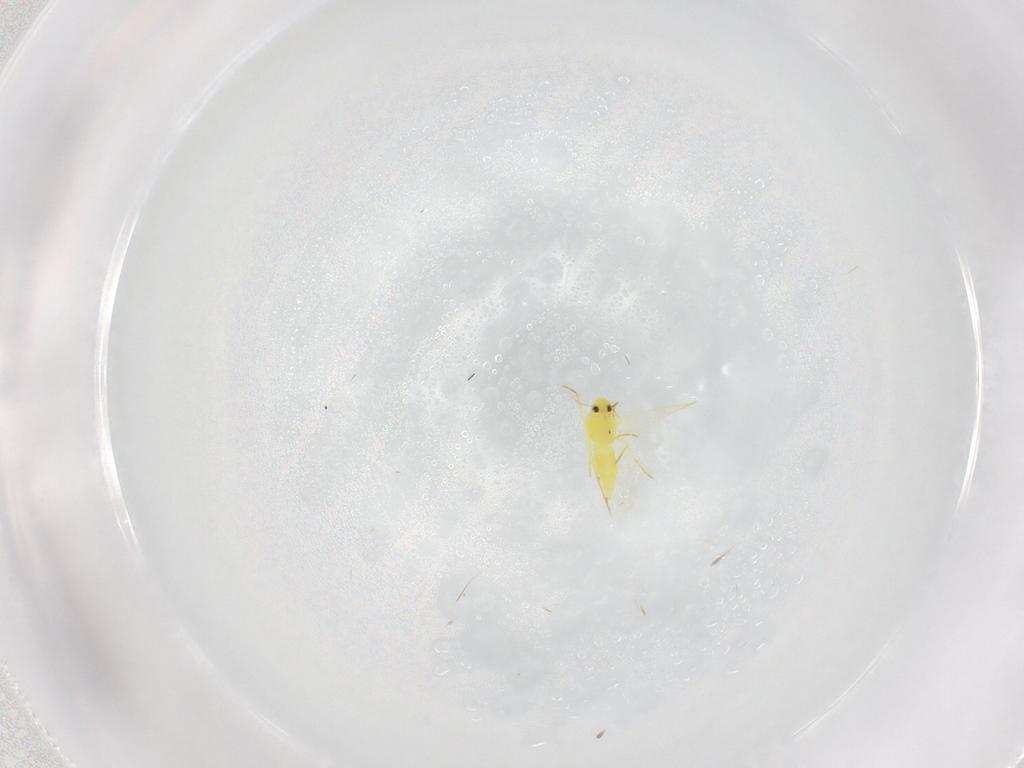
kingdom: Animalia
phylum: Arthropoda
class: Insecta
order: Hemiptera
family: Aleyrodidae
